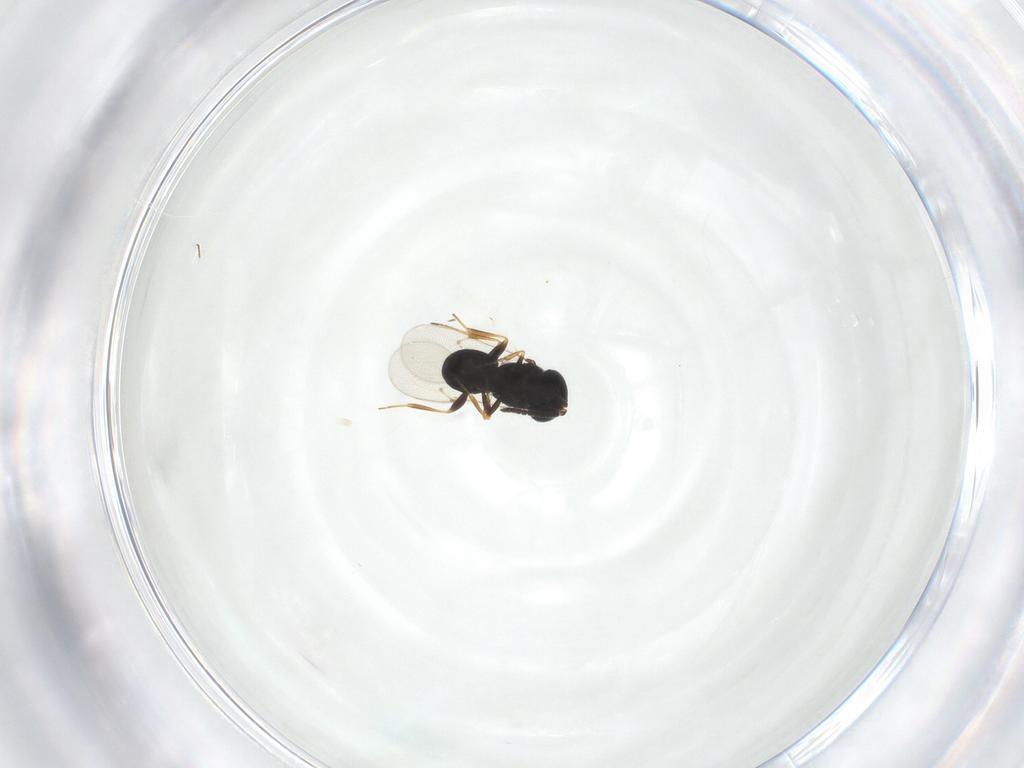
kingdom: Animalia
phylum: Arthropoda
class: Insecta
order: Hymenoptera
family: Scelionidae
